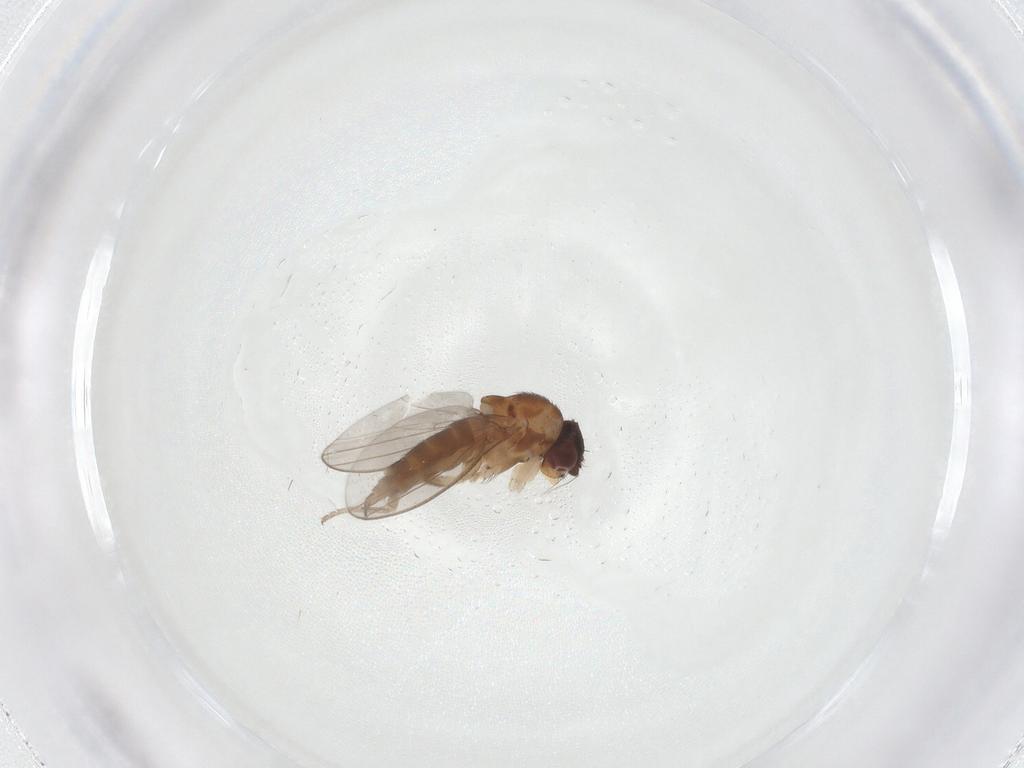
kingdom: Animalia
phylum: Arthropoda
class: Insecta
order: Diptera
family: Milichiidae
